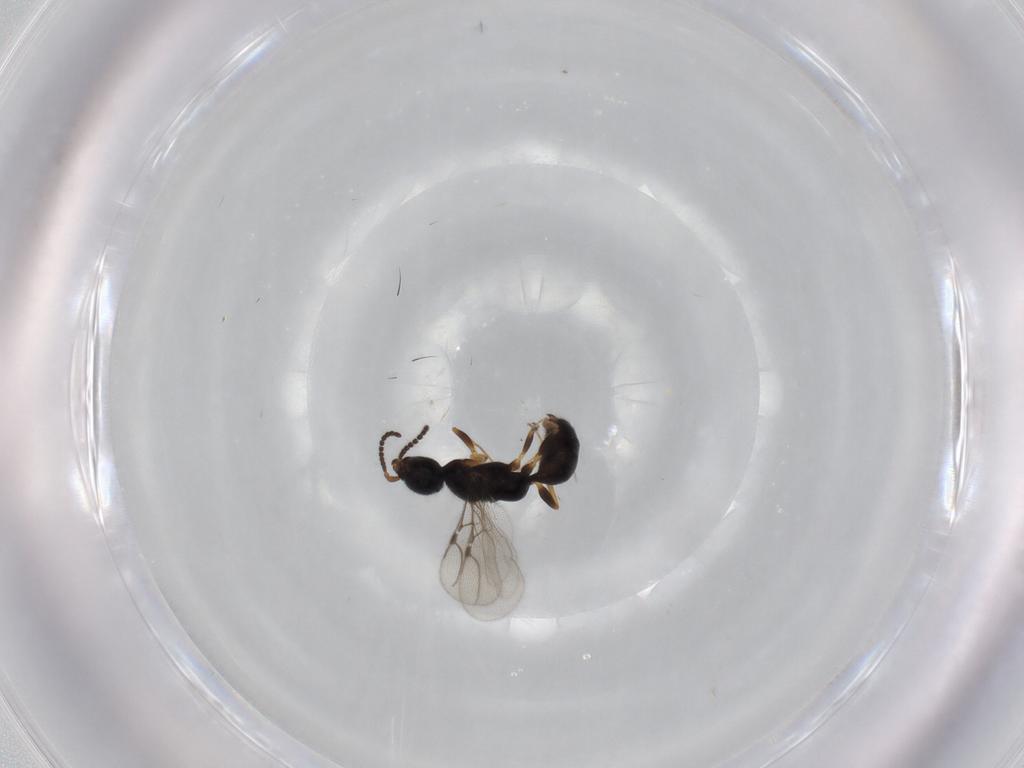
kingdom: Animalia
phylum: Arthropoda
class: Insecta
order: Hymenoptera
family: Bethylidae
